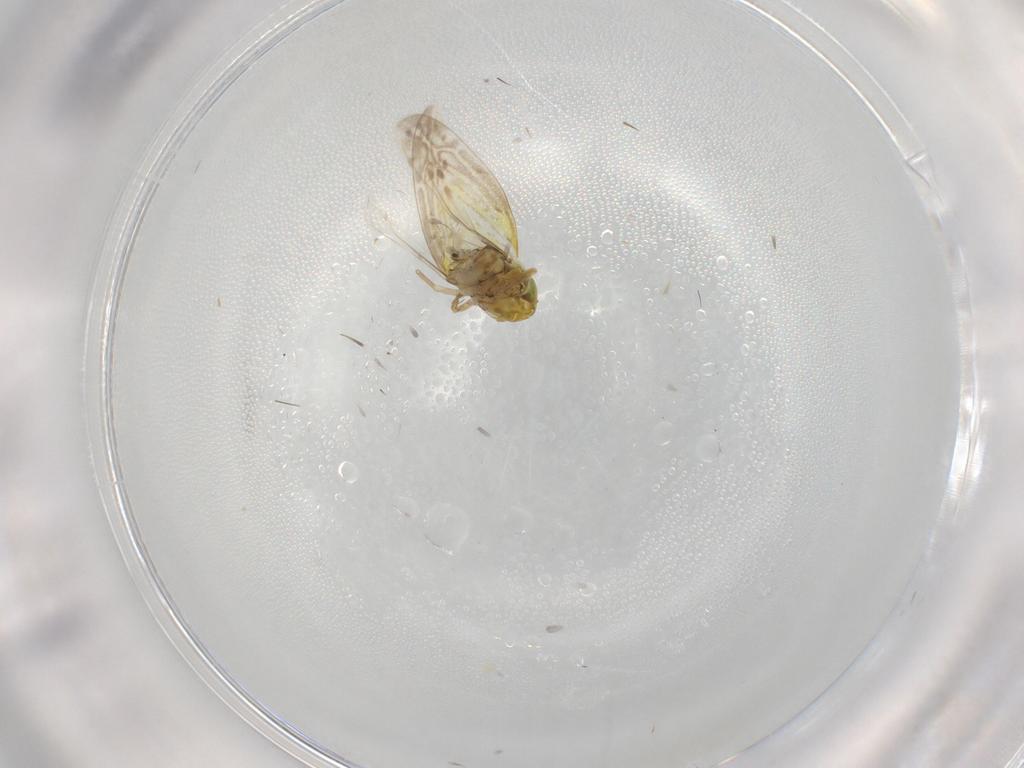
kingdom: Animalia
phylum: Arthropoda
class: Insecta
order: Hemiptera
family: Cicadellidae
